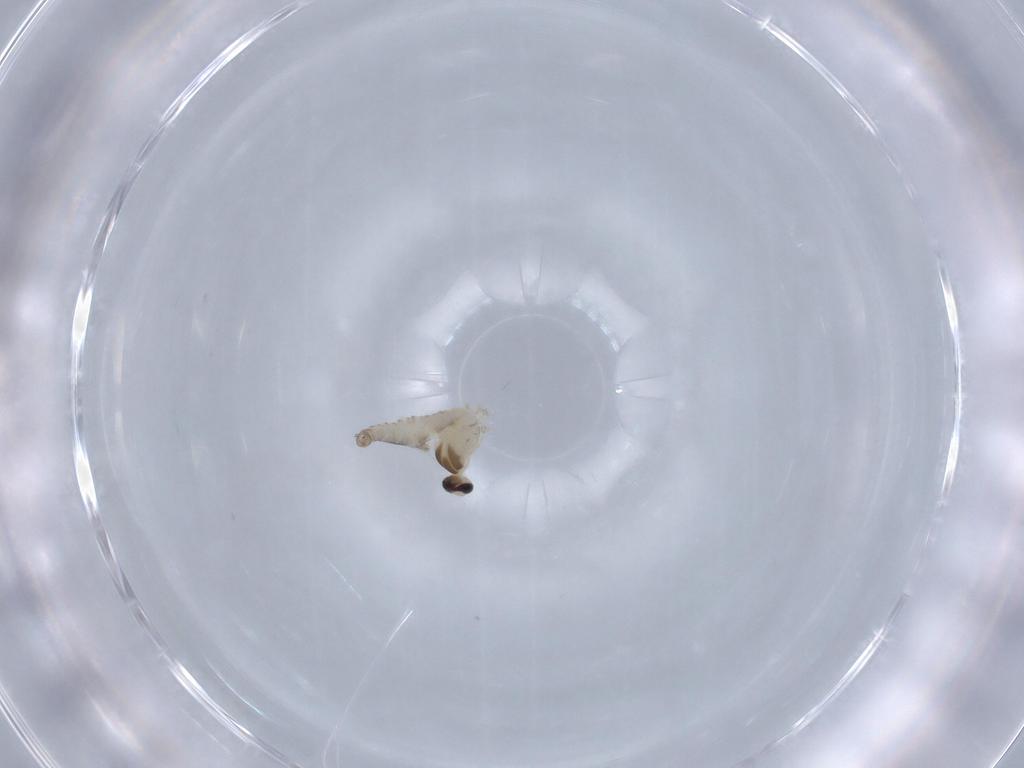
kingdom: Animalia
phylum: Arthropoda
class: Insecta
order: Diptera
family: Cecidomyiidae
